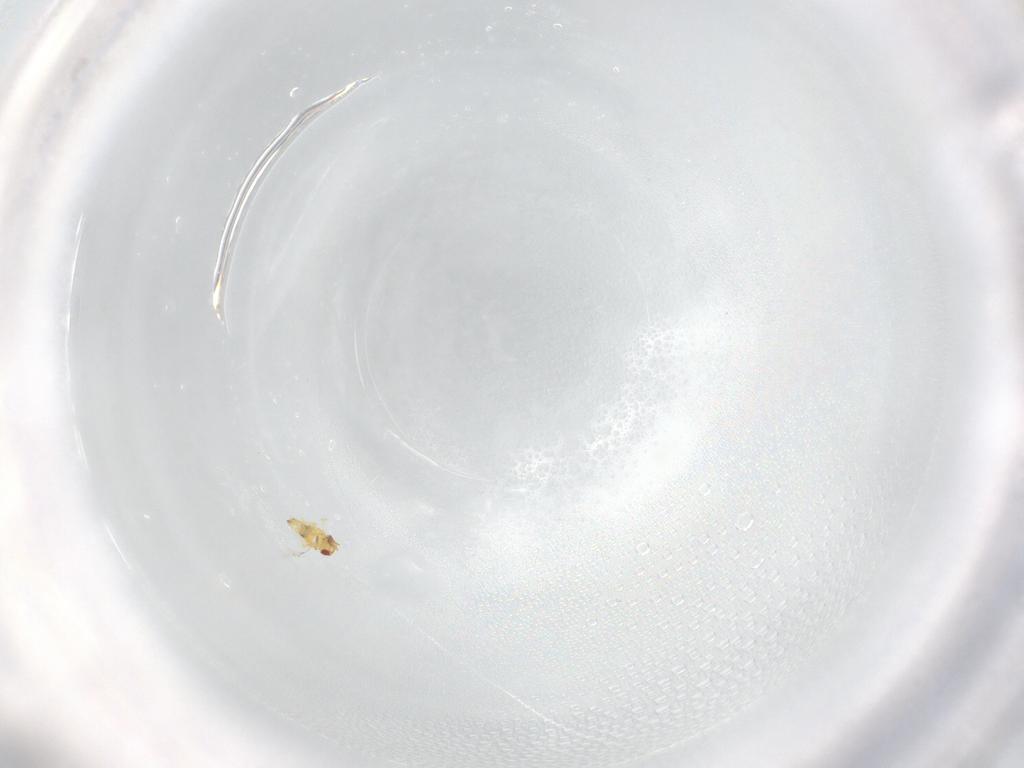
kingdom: Animalia
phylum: Arthropoda
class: Insecta
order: Hymenoptera
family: Trichogrammatidae
